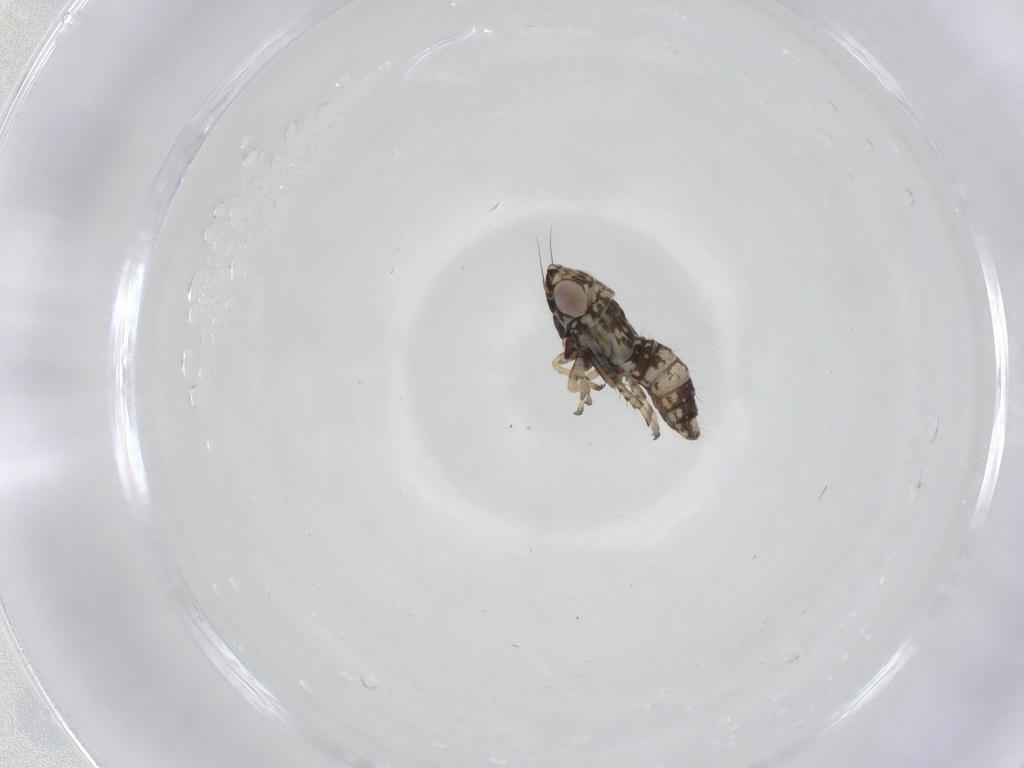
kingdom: Animalia
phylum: Arthropoda
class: Insecta
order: Hemiptera
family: Cicadellidae
